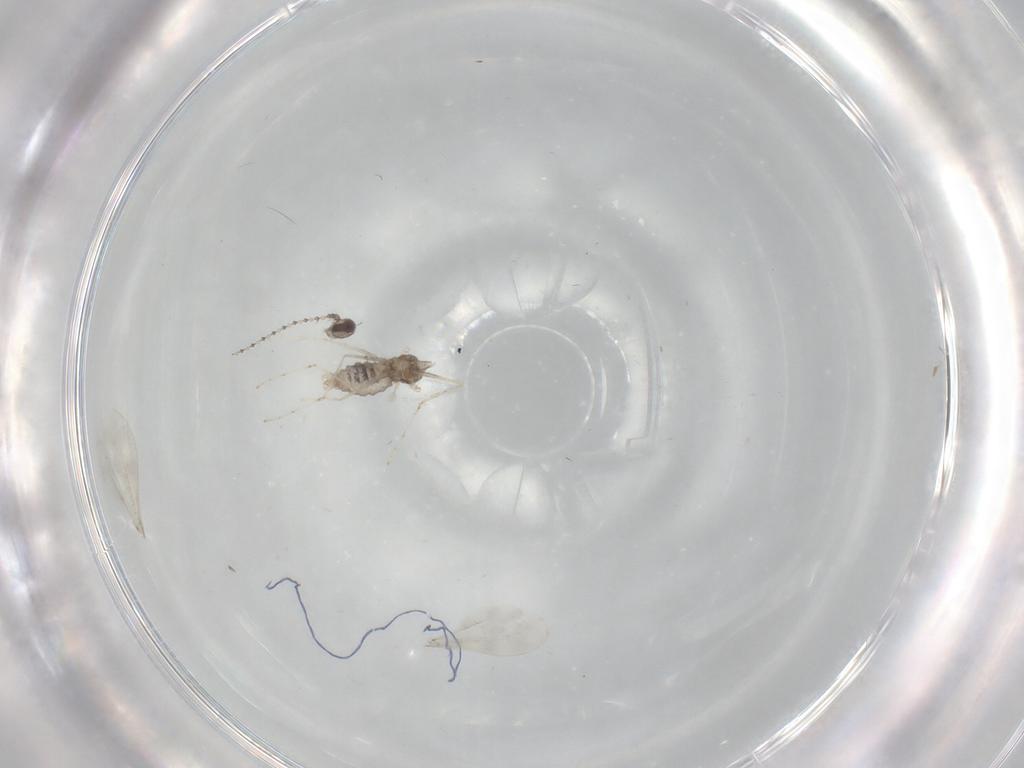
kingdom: Animalia
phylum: Arthropoda
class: Insecta
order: Diptera
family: Cecidomyiidae
